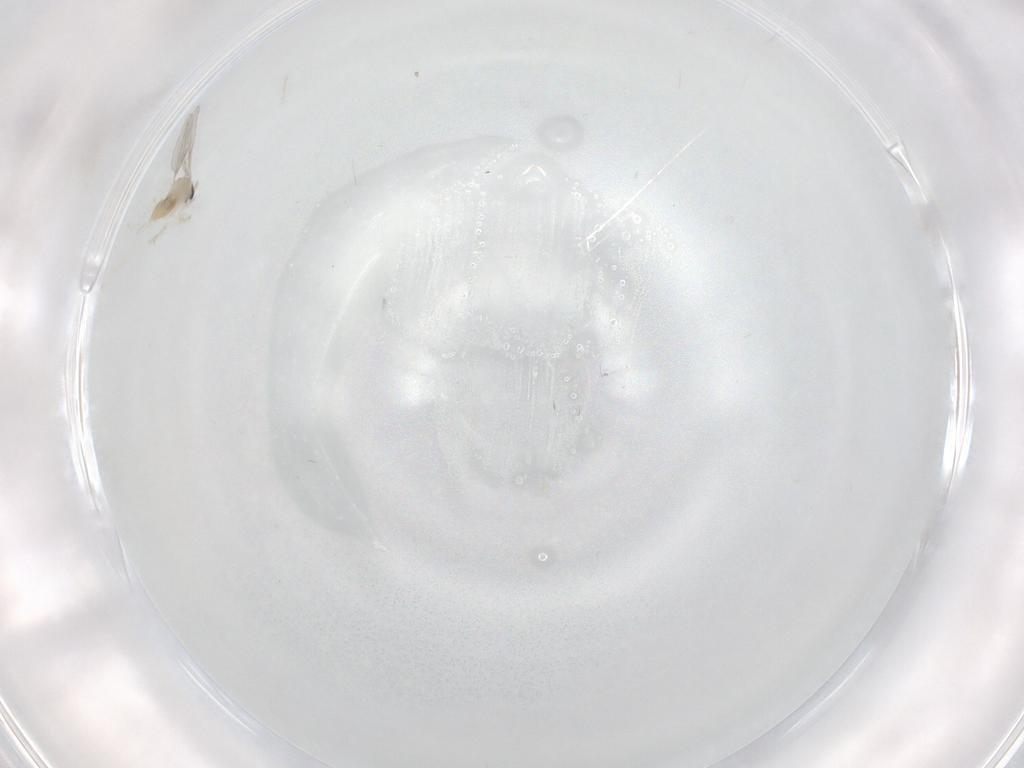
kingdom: Animalia
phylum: Arthropoda
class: Insecta
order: Diptera
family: Cecidomyiidae
